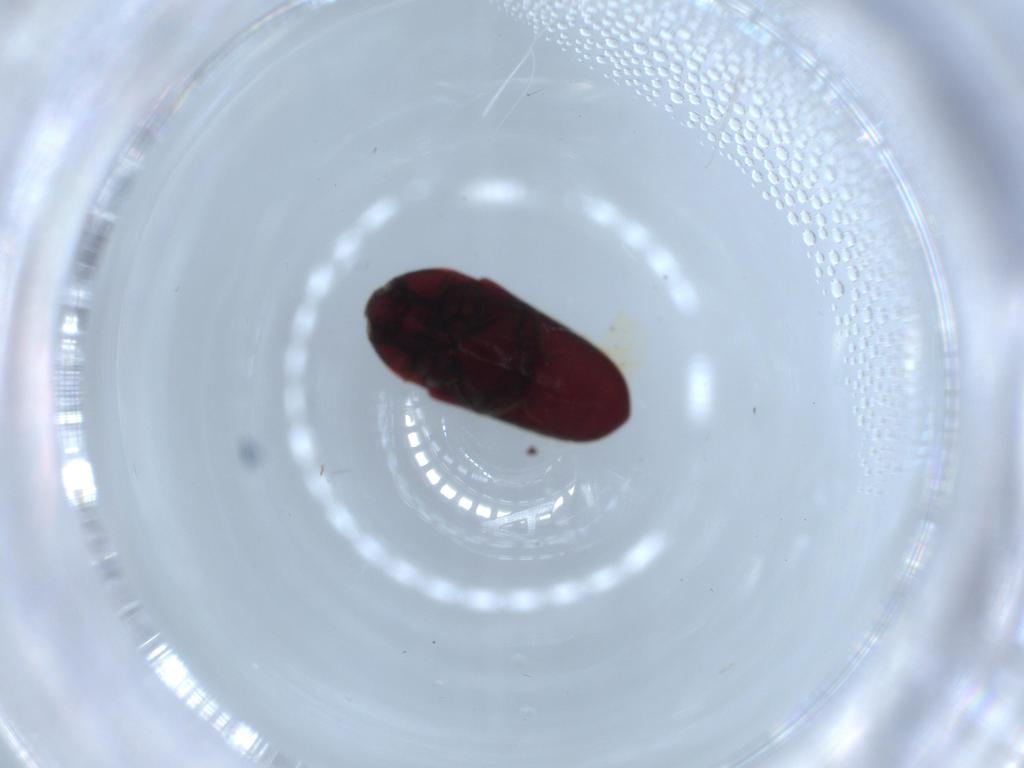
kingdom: Animalia
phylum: Arthropoda
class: Insecta
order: Coleoptera
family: Throscidae
